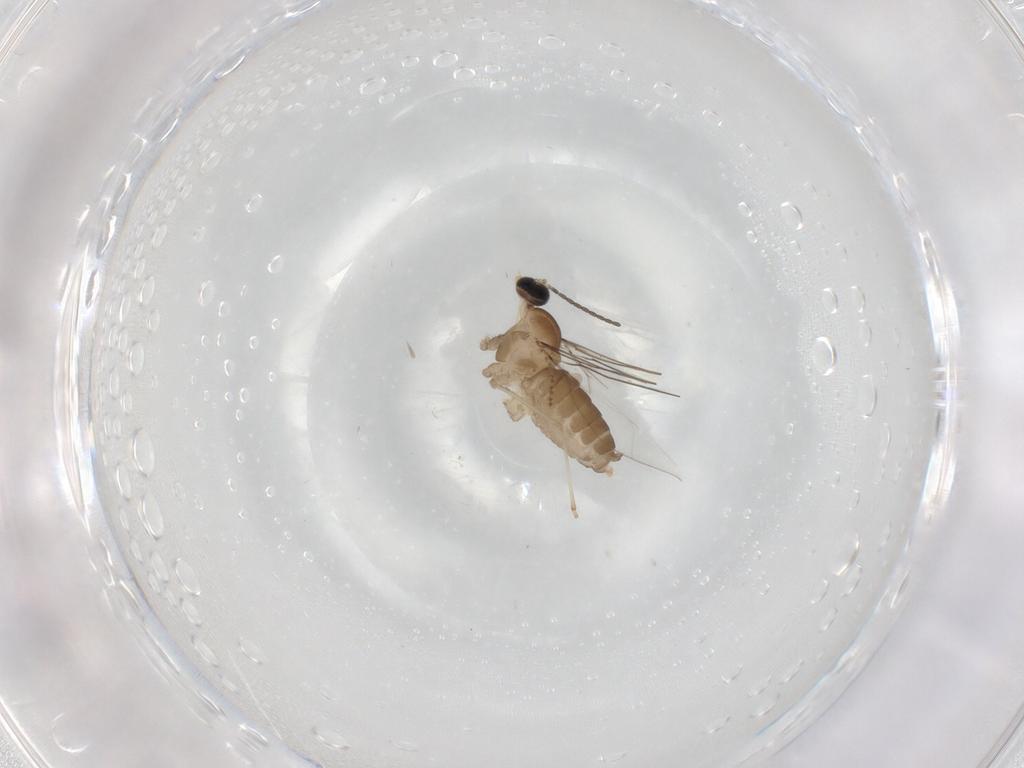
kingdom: Animalia
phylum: Arthropoda
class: Insecta
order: Diptera
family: Cecidomyiidae
